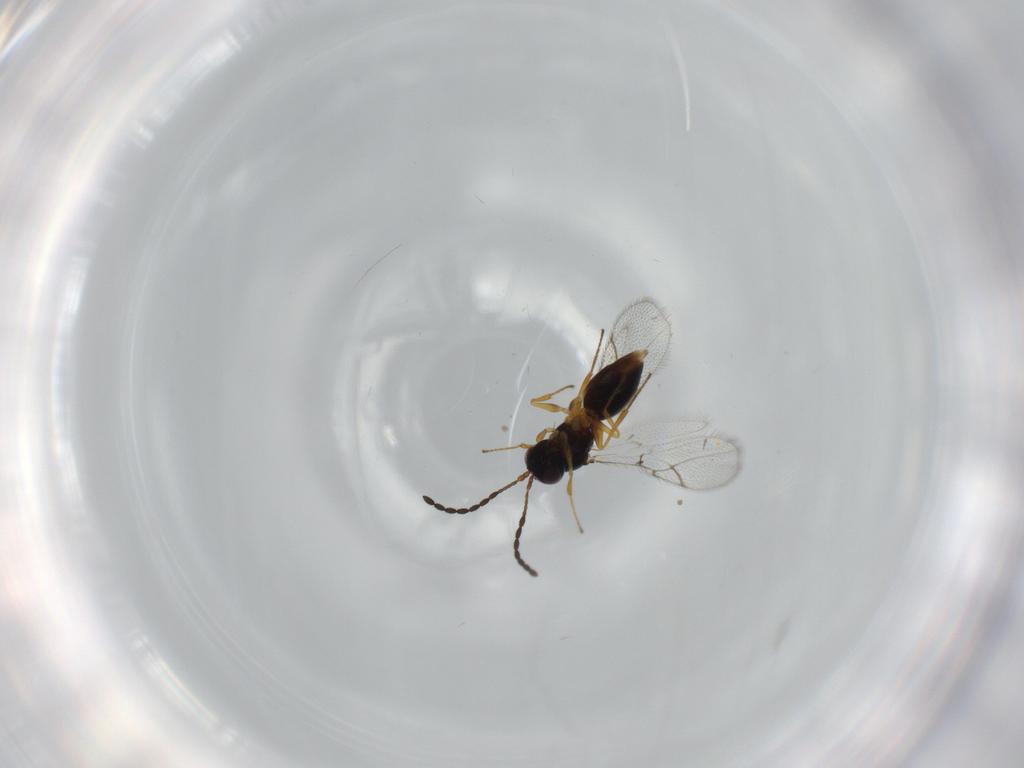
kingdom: Animalia
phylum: Arthropoda
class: Insecta
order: Hymenoptera
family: Figitidae
